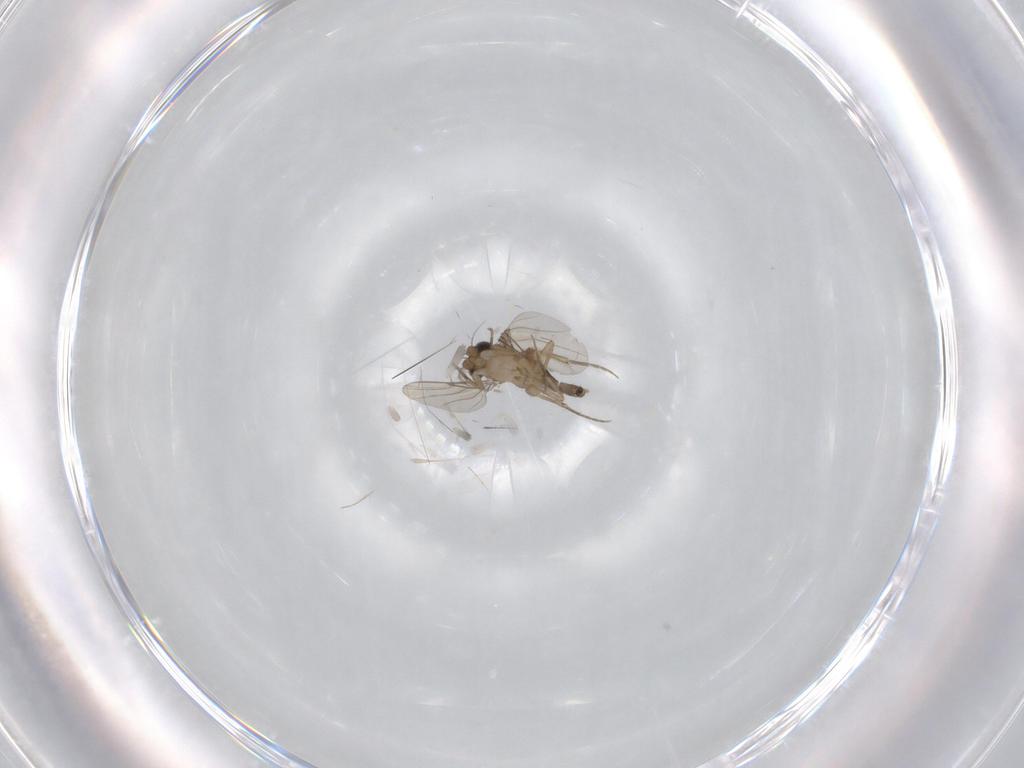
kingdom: Animalia
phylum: Arthropoda
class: Insecta
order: Diptera
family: Phoridae
